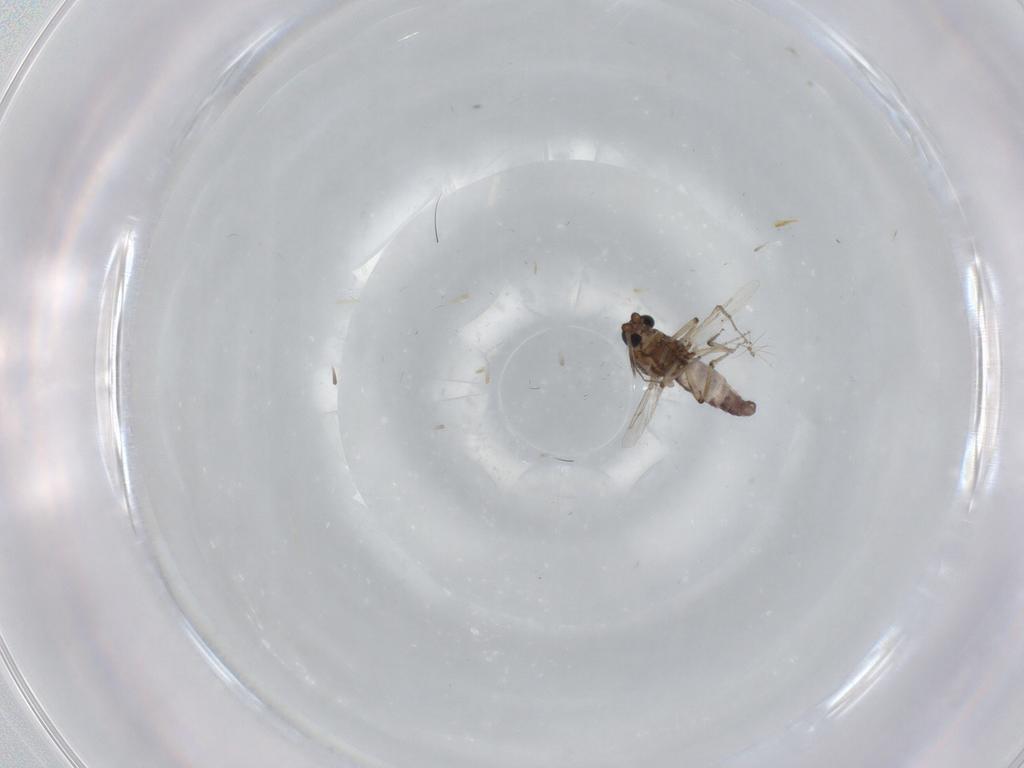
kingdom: Animalia
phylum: Arthropoda
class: Insecta
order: Diptera
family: Ceratopogonidae
